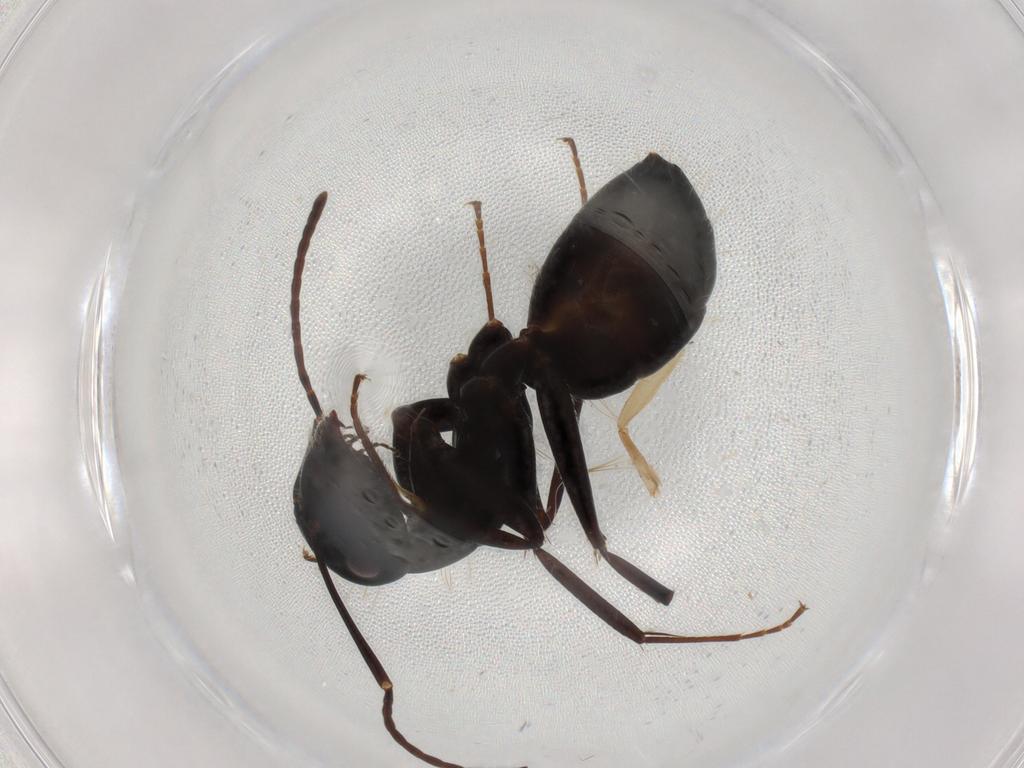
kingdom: Animalia
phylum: Arthropoda
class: Insecta
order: Hymenoptera
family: Formicidae
